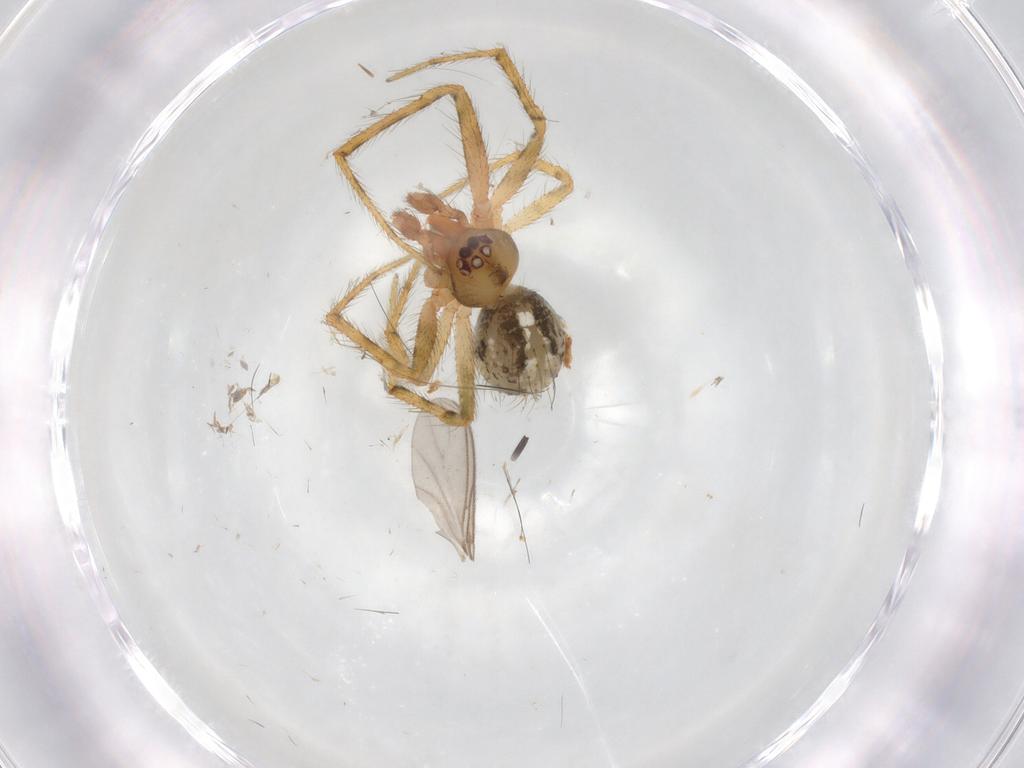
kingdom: Animalia
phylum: Arthropoda
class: Arachnida
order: Araneae
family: Theridiidae
